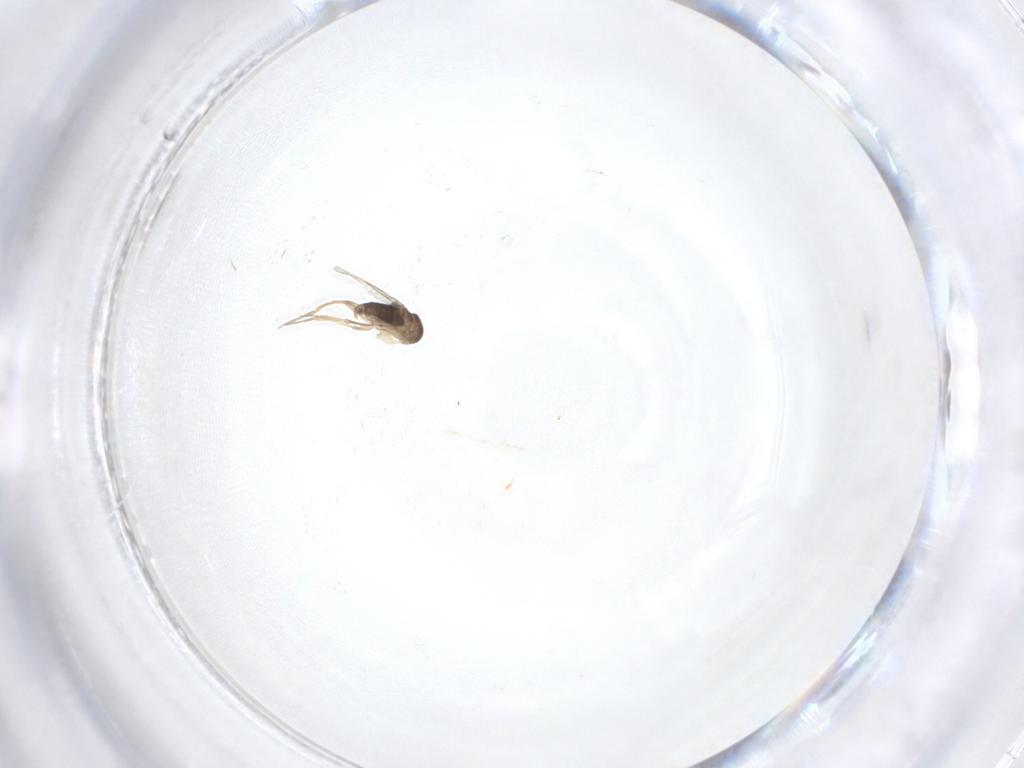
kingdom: Animalia
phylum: Arthropoda
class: Insecta
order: Diptera
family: Phoridae
